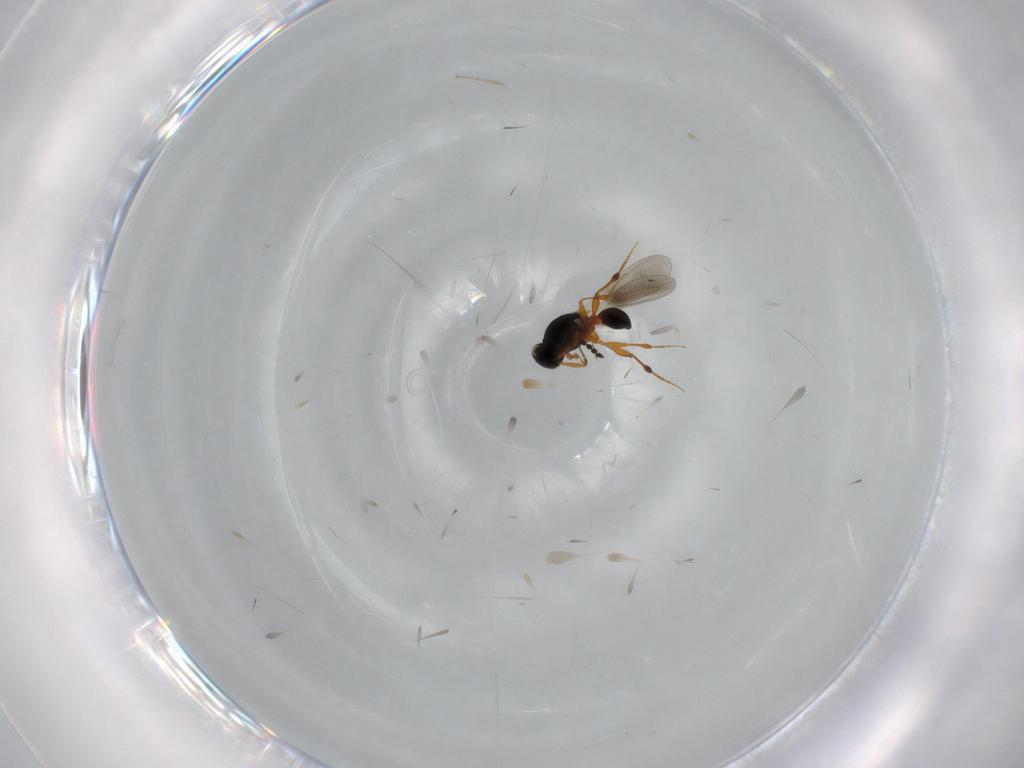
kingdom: Animalia
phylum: Arthropoda
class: Insecta
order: Hymenoptera
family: Platygastridae
